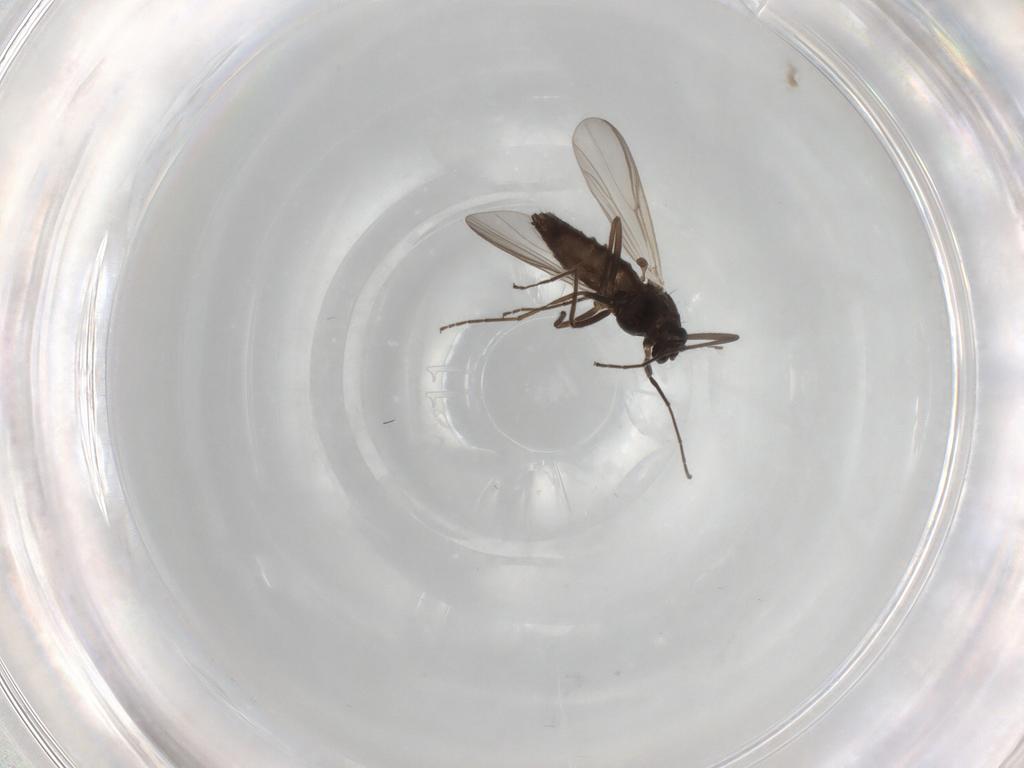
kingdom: Animalia
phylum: Arthropoda
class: Insecta
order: Diptera
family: Chironomidae
